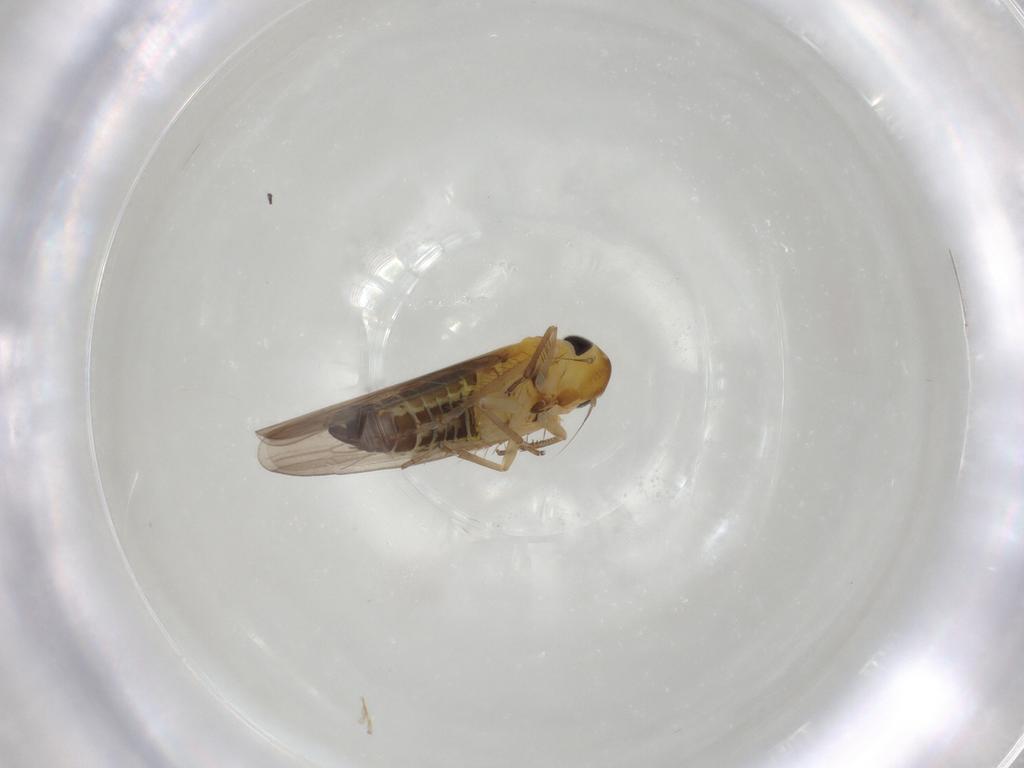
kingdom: Animalia
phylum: Arthropoda
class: Insecta
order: Hemiptera
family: Cicadellidae
